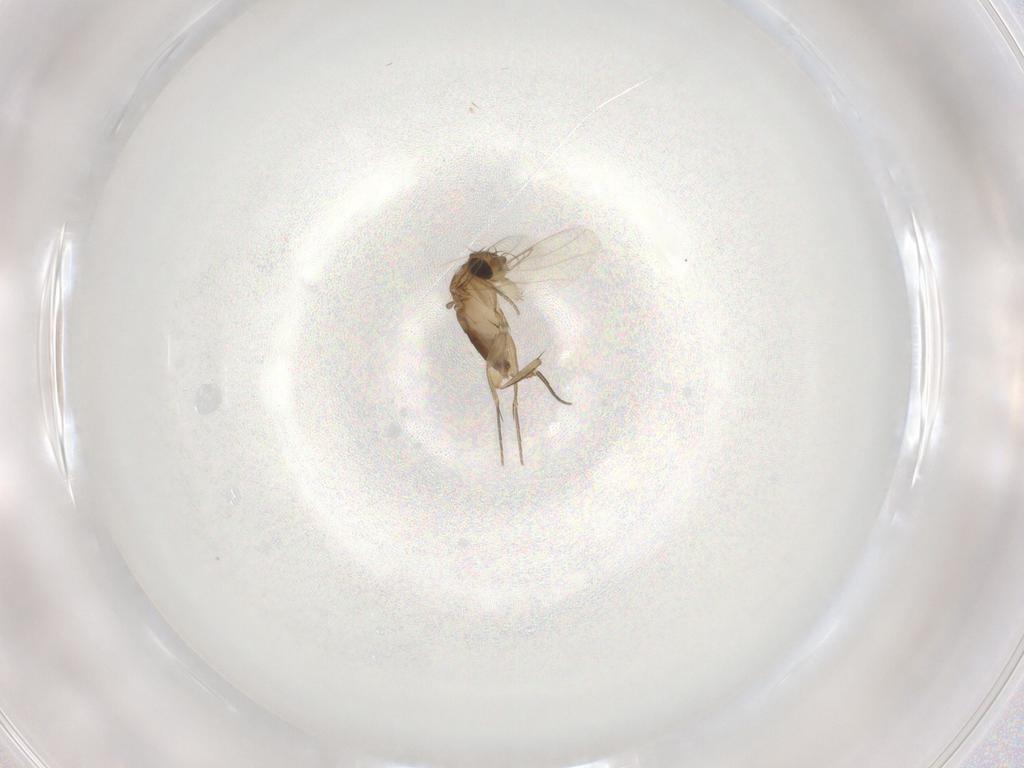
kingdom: Animalia
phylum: Arthropoda
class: Insecta
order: Diptera
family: Phoridae
